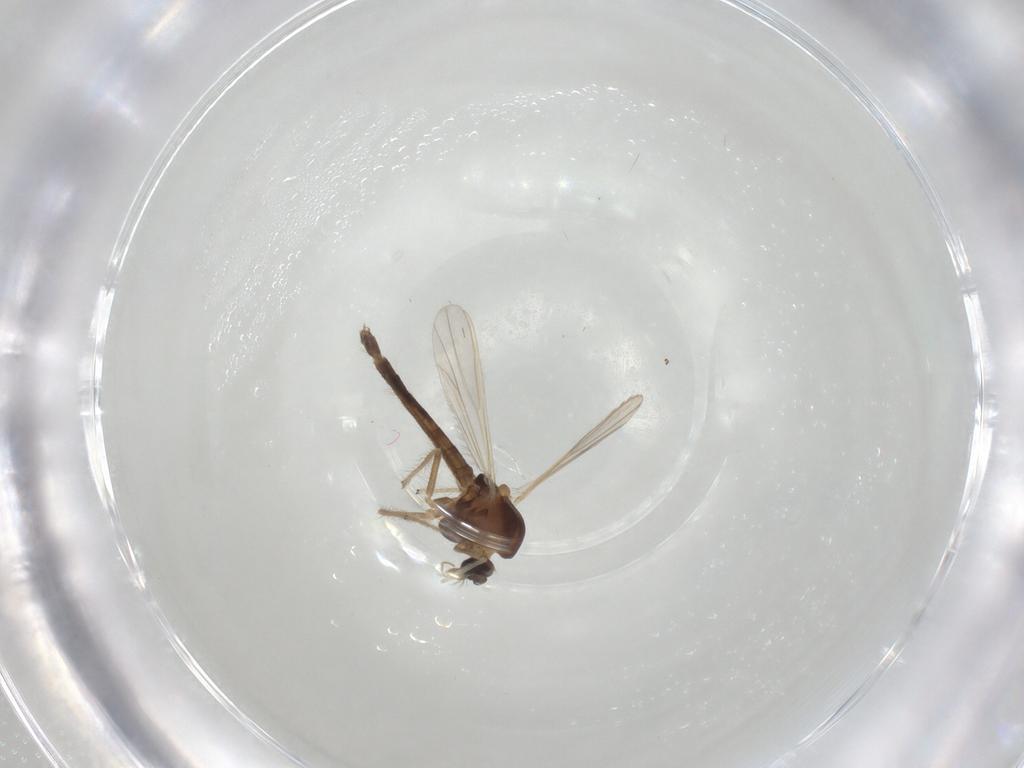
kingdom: Animalia
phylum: Arthropoda
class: Insecta
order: Diptera
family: Chironomidae
